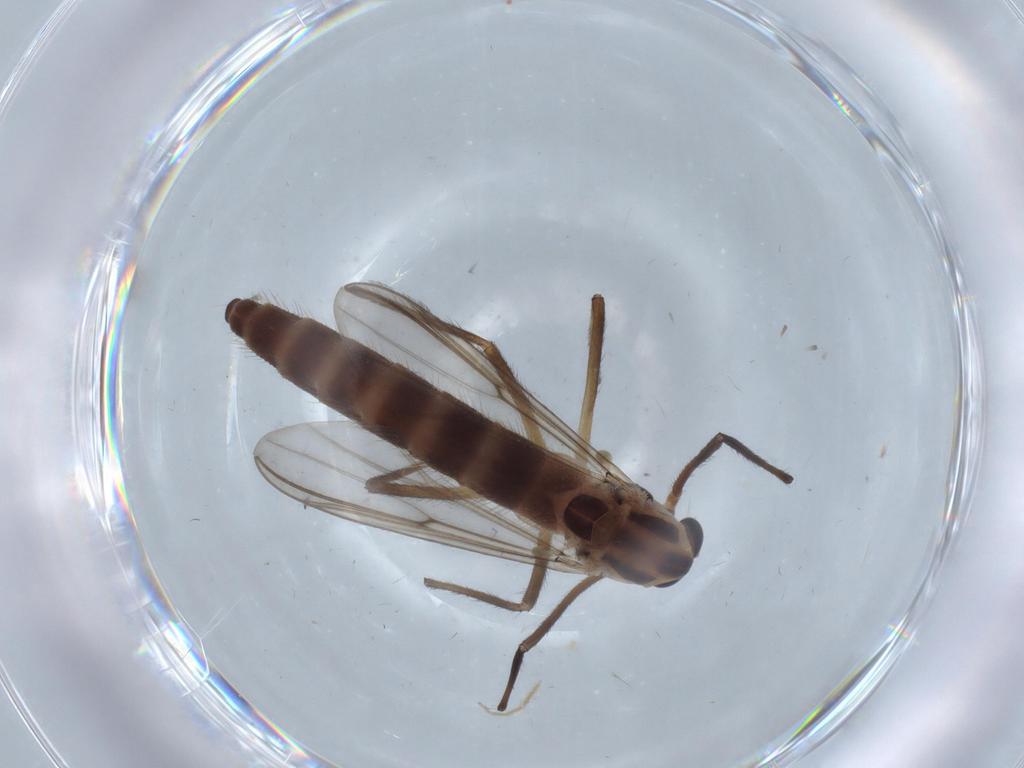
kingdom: Animalia
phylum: Arthropoda
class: Insecta
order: Diptera
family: Chironomidae
